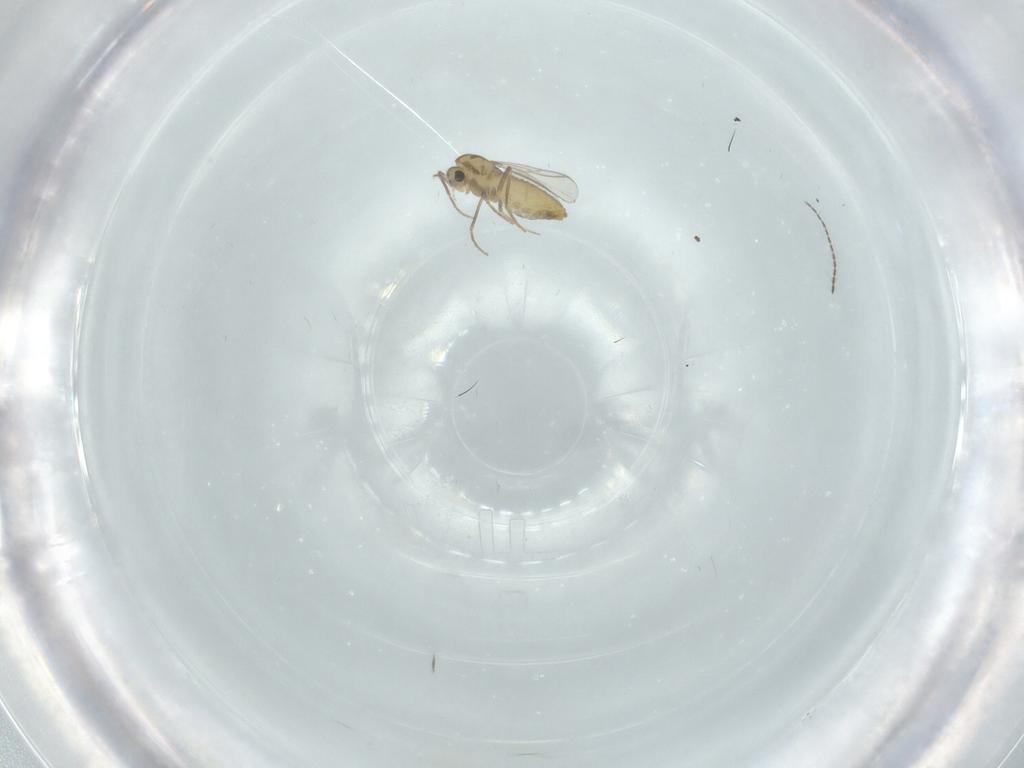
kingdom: Animalia
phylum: Arthropoda
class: Insecta
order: Diptera
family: Chironomidae
